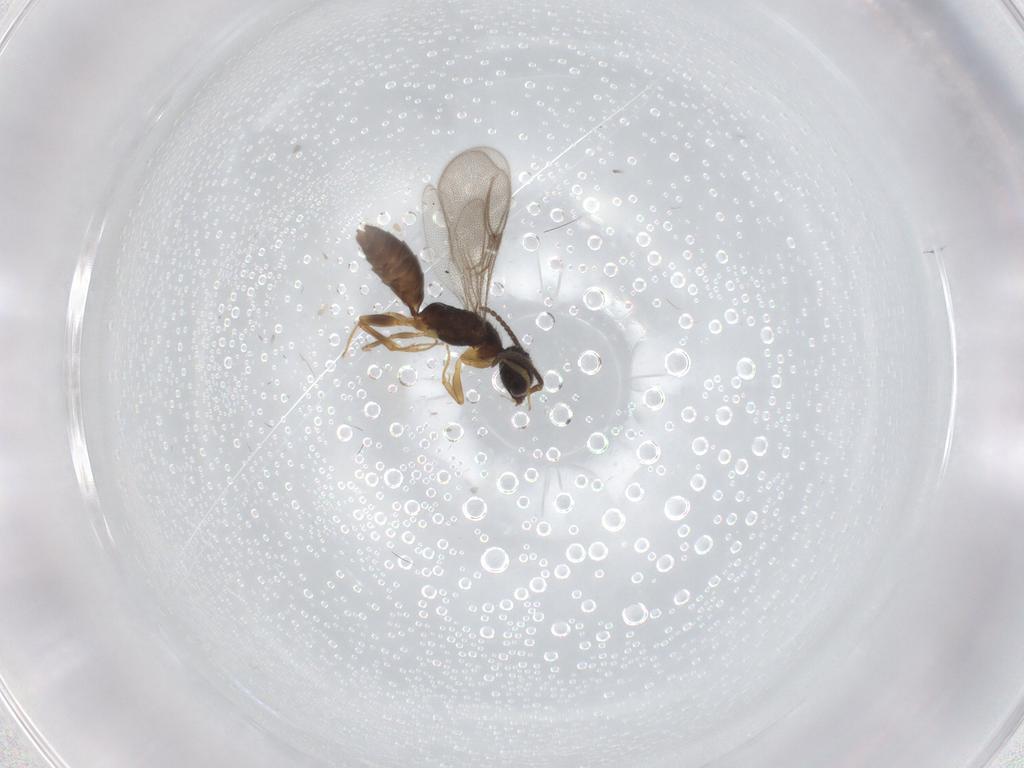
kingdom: Animalia
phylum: Arthropoda
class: Insecta
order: Hymenoptera
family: Bethylidae
